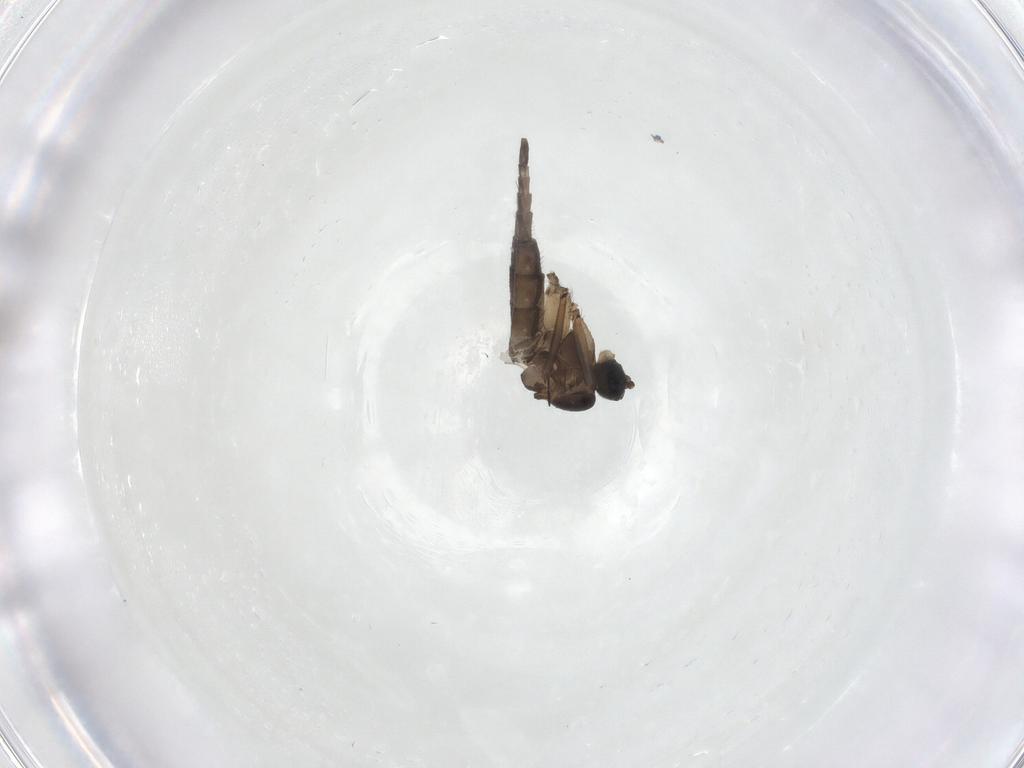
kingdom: Animalia
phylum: Arthropoda
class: Insecta
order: Diptera
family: Sciaridae
